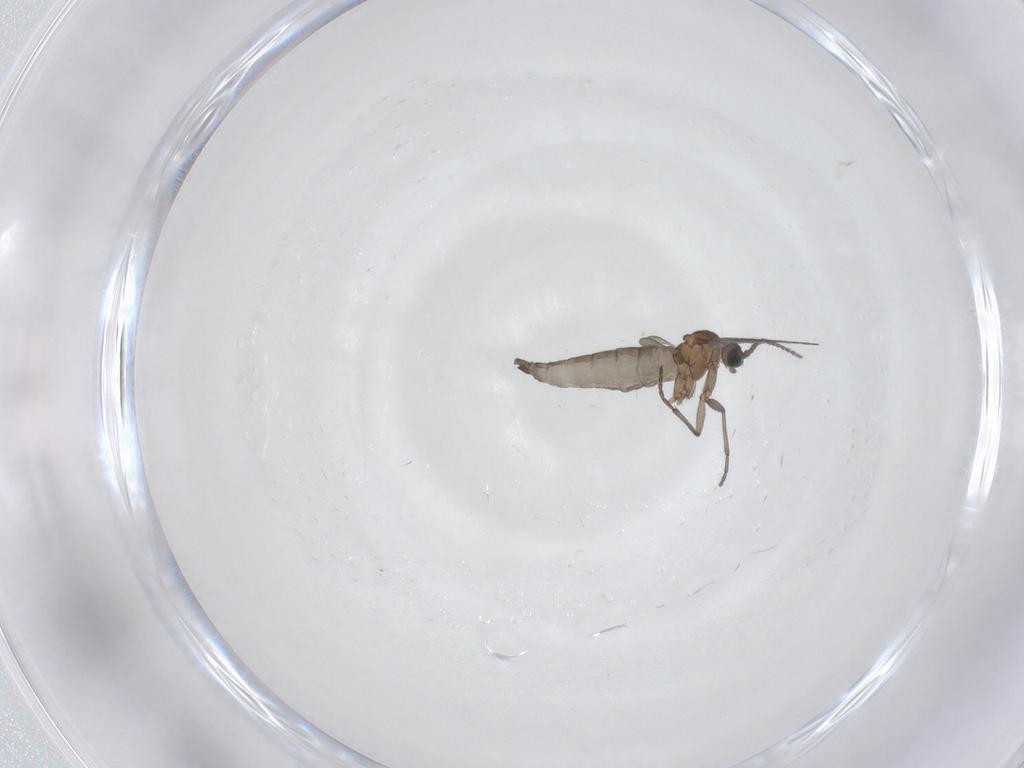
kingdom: Animalia
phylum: Arthropoda
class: Insecta
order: Diptera
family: Sciaridae
